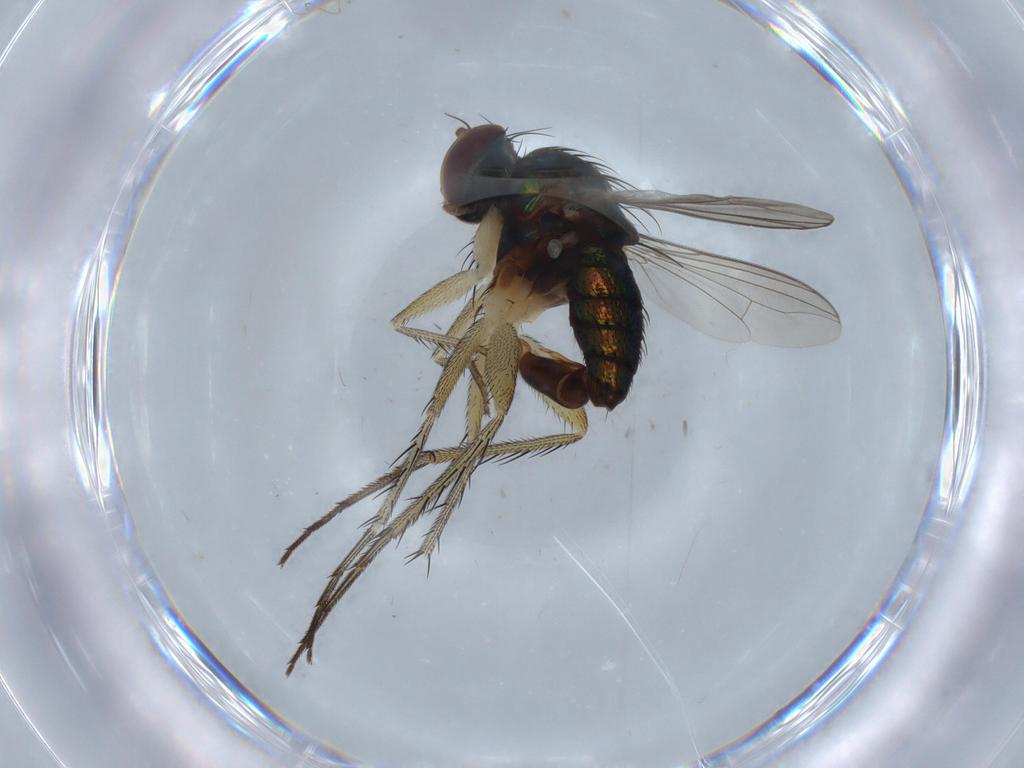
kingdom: Animalia
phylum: Arthropoda
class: Insecta
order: Diptera
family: Dolichopodidae
